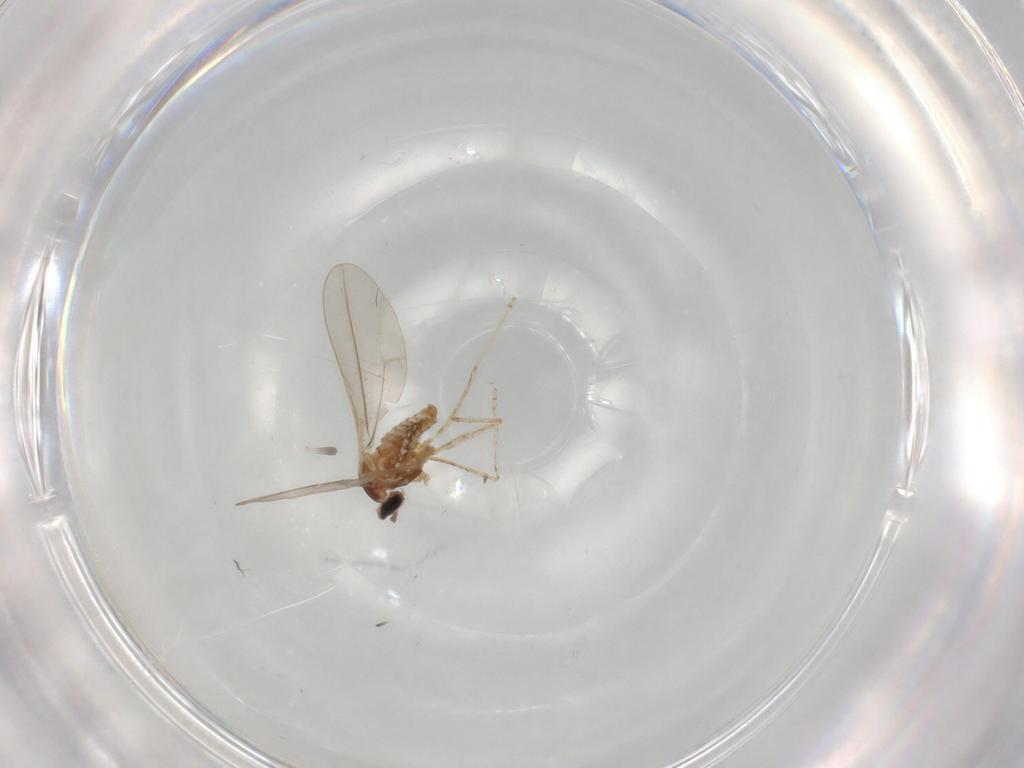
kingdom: Animalia
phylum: Arthropoda
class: Insecta
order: Diptera
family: Cecidomyiidae
